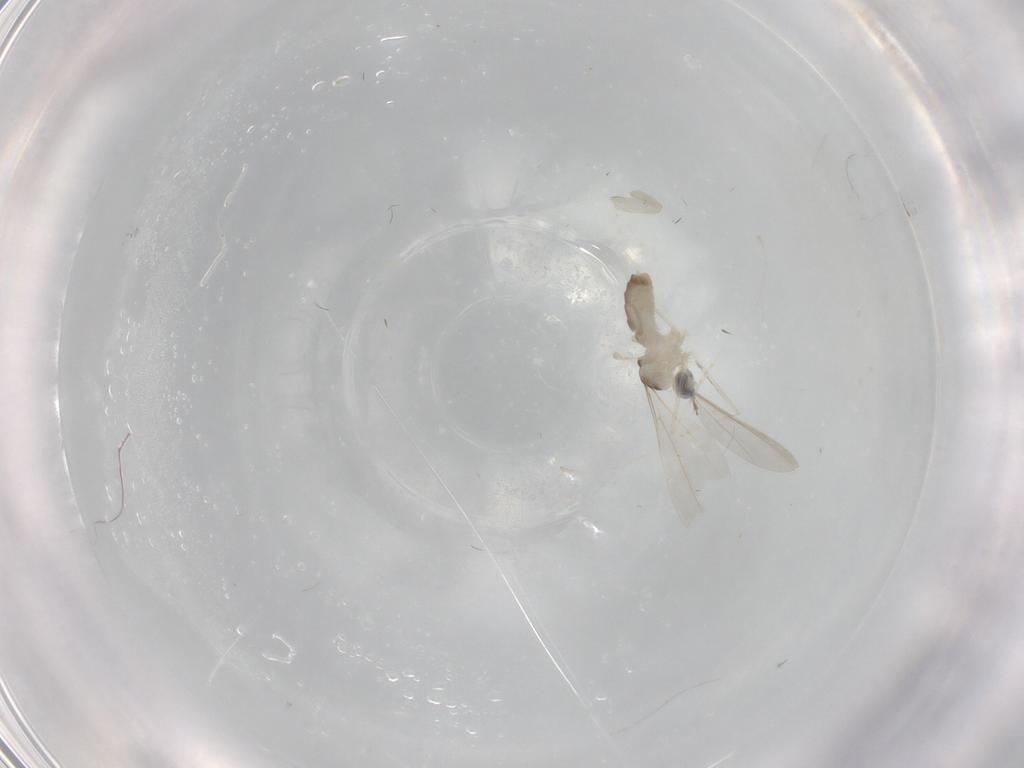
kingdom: Animalia
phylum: Arthropoda
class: Insecta
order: Diptera
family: Cecidomyiidae
